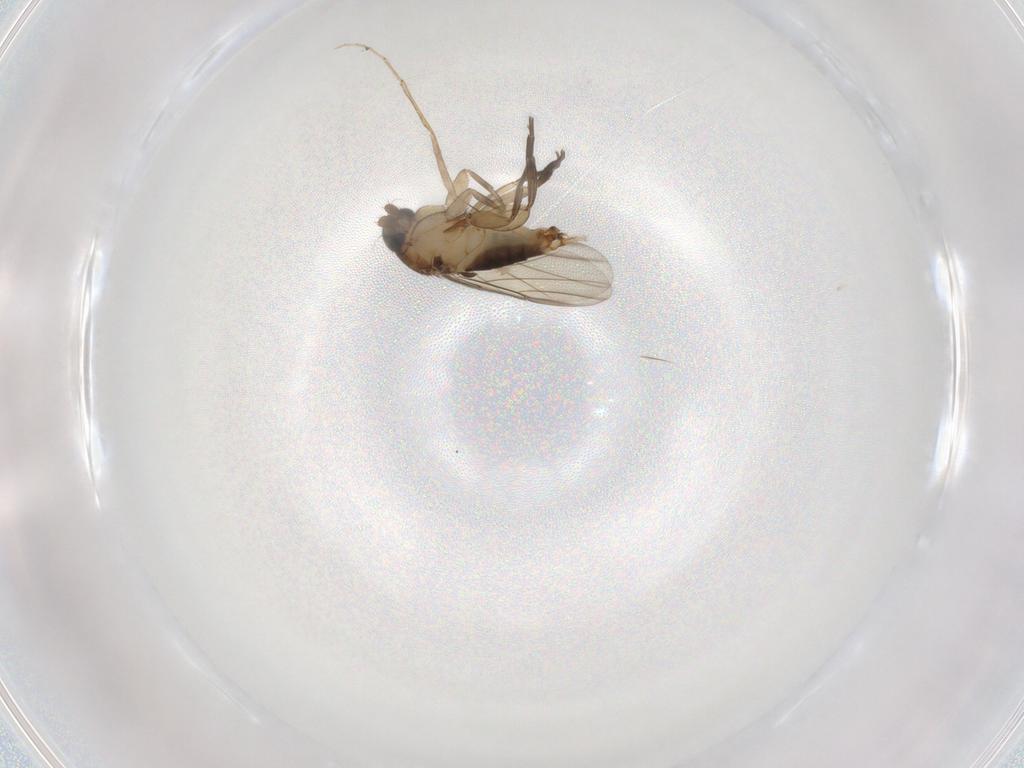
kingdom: Animalia
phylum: Arthropoda
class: Insecta
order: Diptera
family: Phoridae
